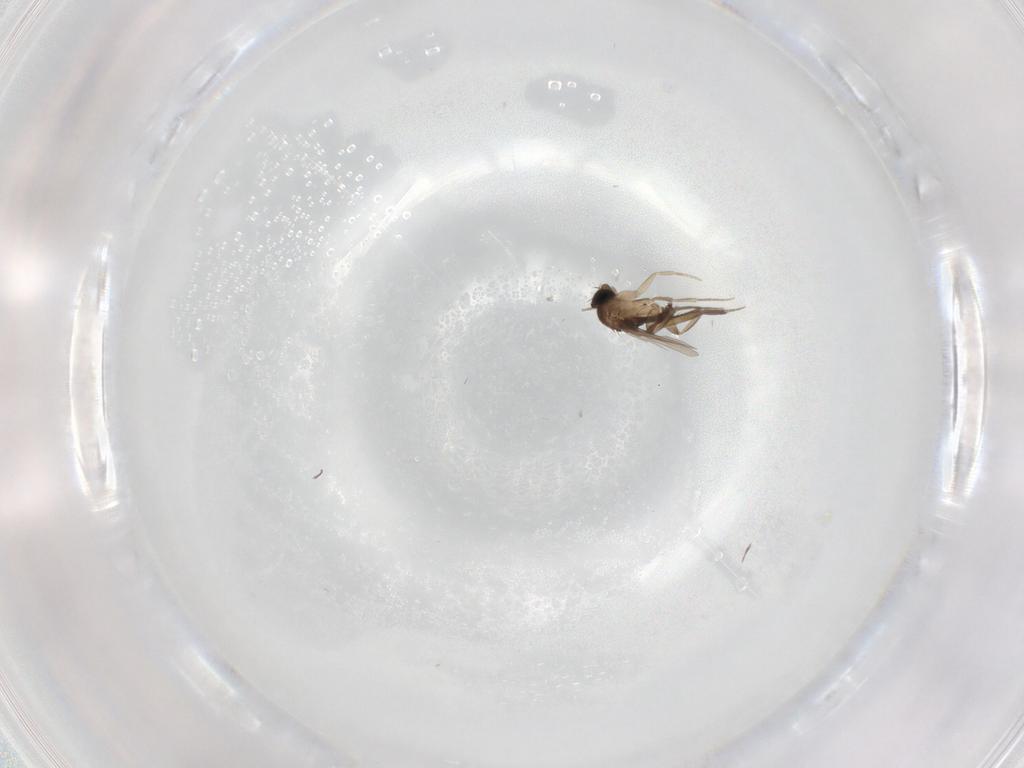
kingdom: Animalia
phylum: Arthropoda
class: Insecta
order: Diptera
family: Phoridae
